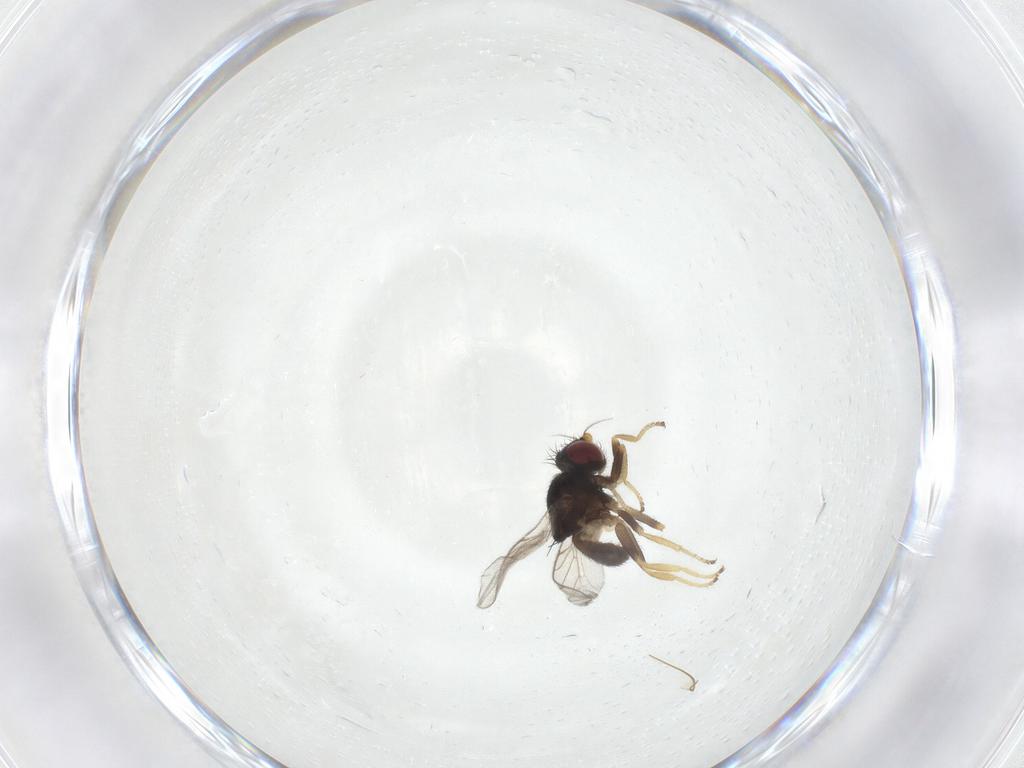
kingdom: Animalia
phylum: Arthropoda
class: Insecta
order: Diptera
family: Chloropidae
